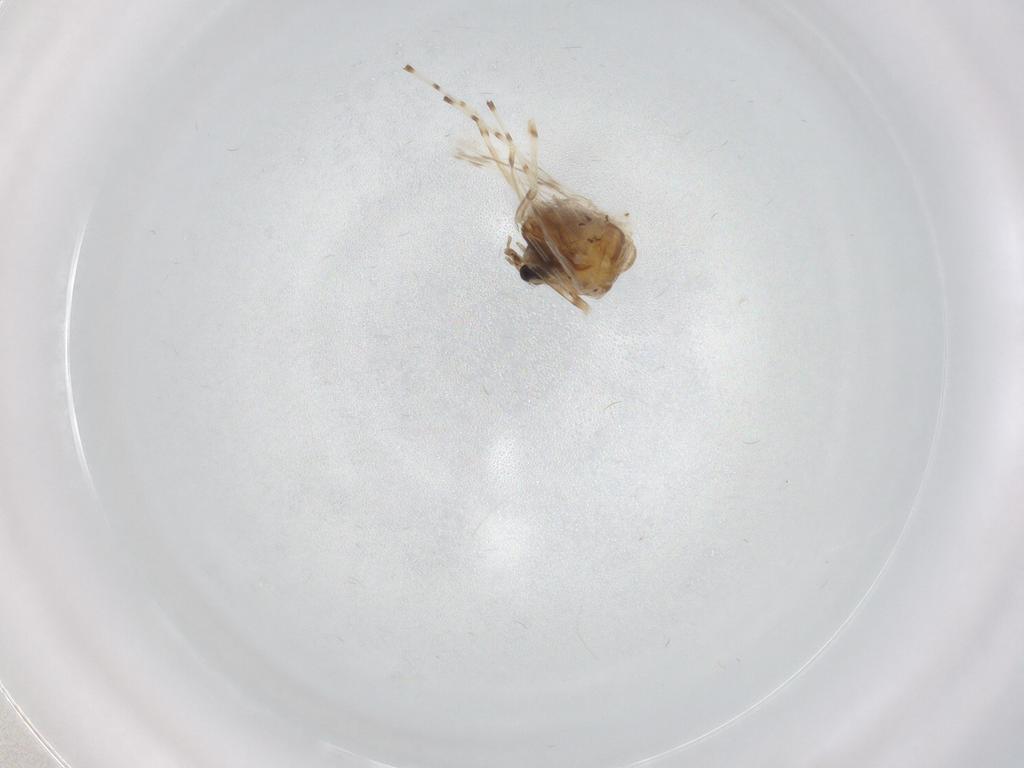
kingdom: Animalia
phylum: Arthropoda
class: Insecta
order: Diptera
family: Chironomidae
